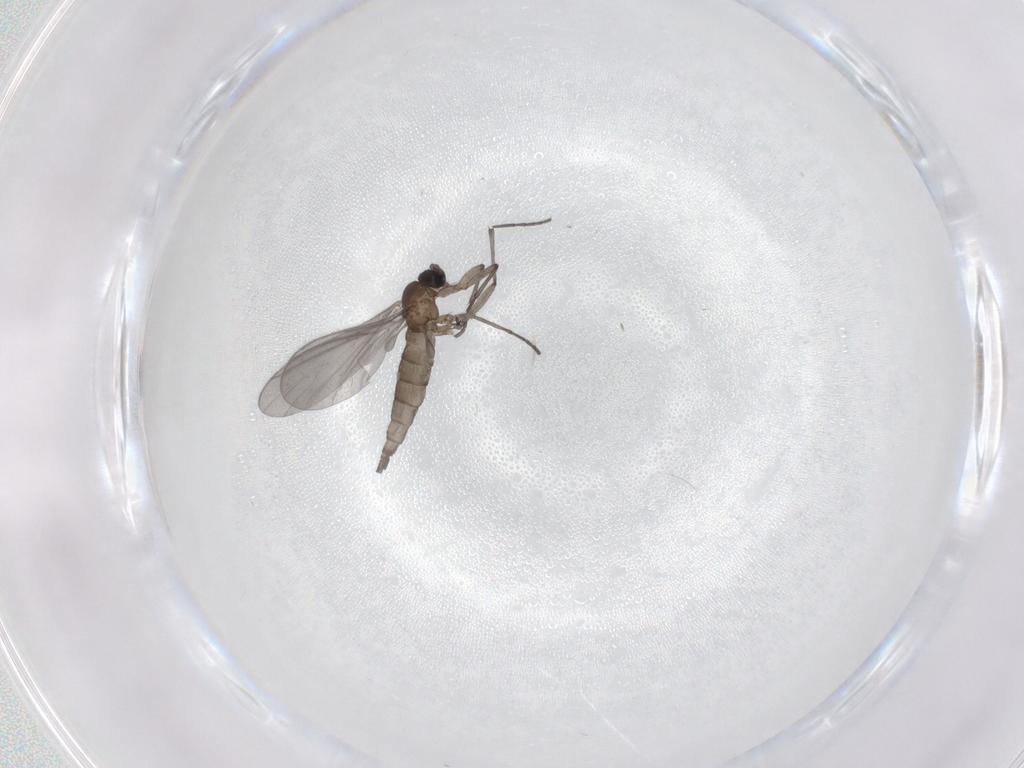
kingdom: Animalia
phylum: Arthropoda
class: Insecta
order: Diptera
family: Sciaridae
